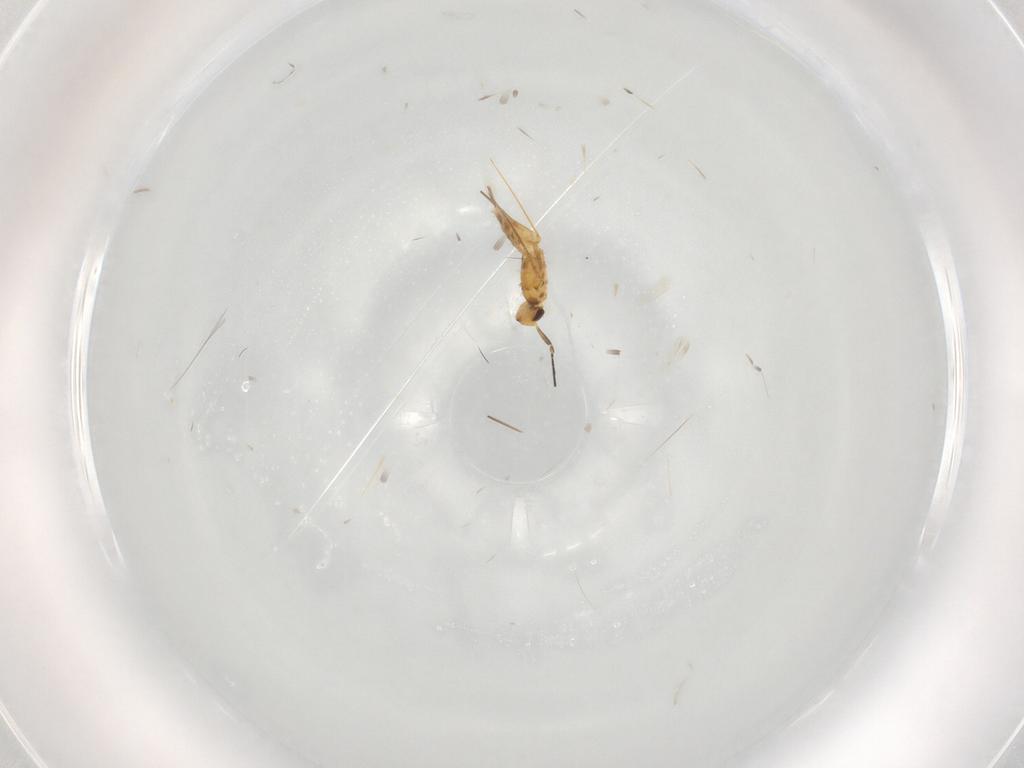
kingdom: Animalia
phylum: Arthropoda
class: Insecta
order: Hymenoptera
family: Mymaridae
